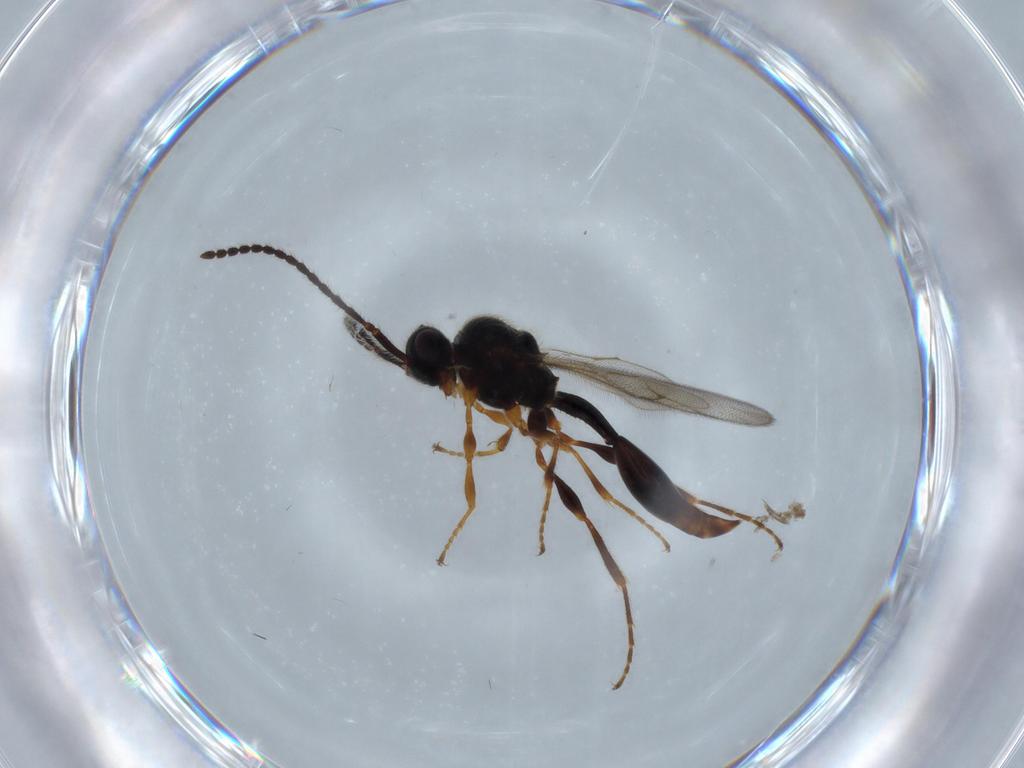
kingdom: Animalia
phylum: Arthropoda
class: Insecta
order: Hymenoptera
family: Diapriidae
